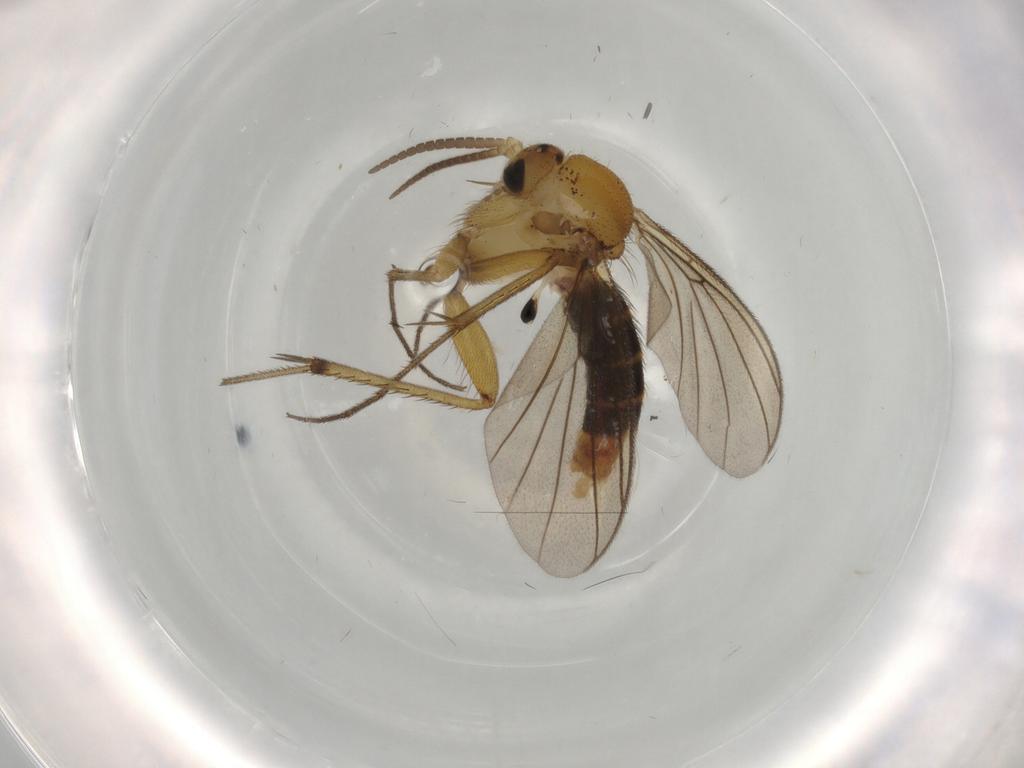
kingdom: Animalia
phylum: Arthropoda
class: Insecta
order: Diptera
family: Cecidomyiidae
